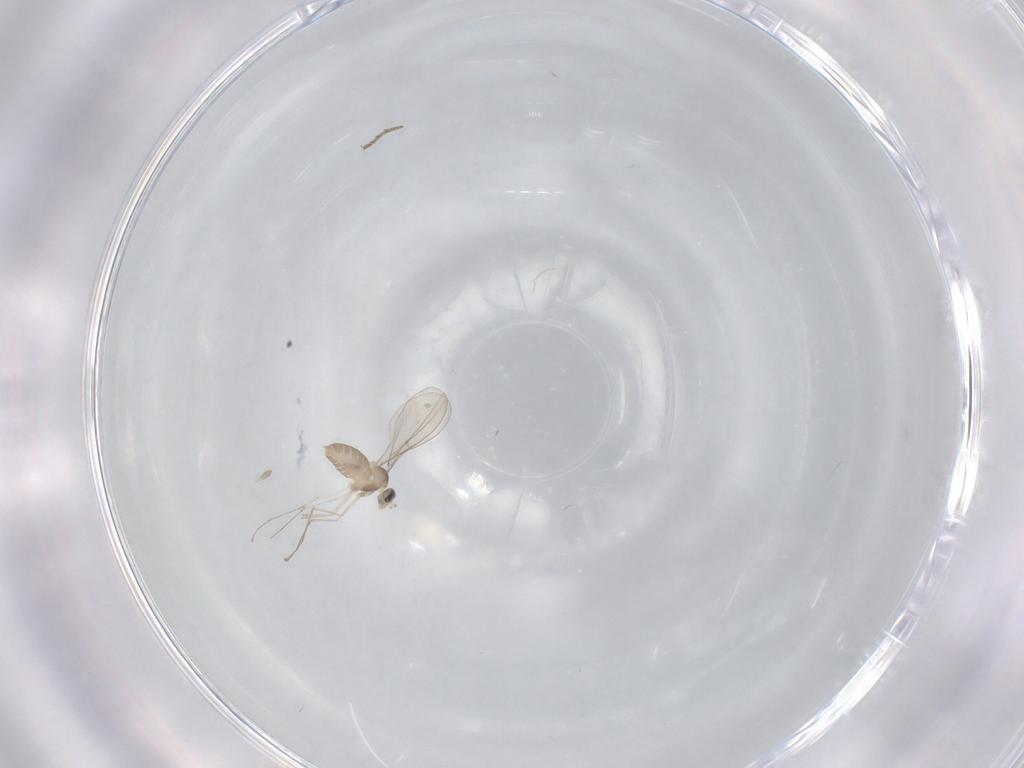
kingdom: Animalia
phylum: Arthropoda
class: Insecta
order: Diptera
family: Cecidomyiidae
